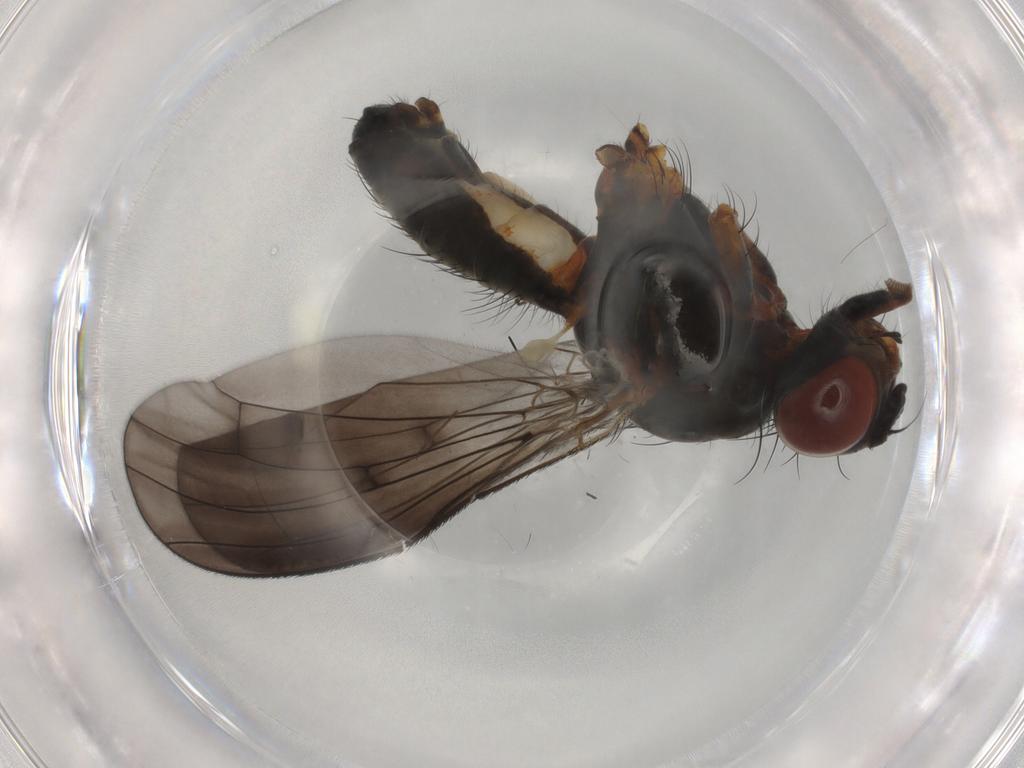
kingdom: Animalia
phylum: Arthropoda
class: Insecta
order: Diptera
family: Anthomyiidae
